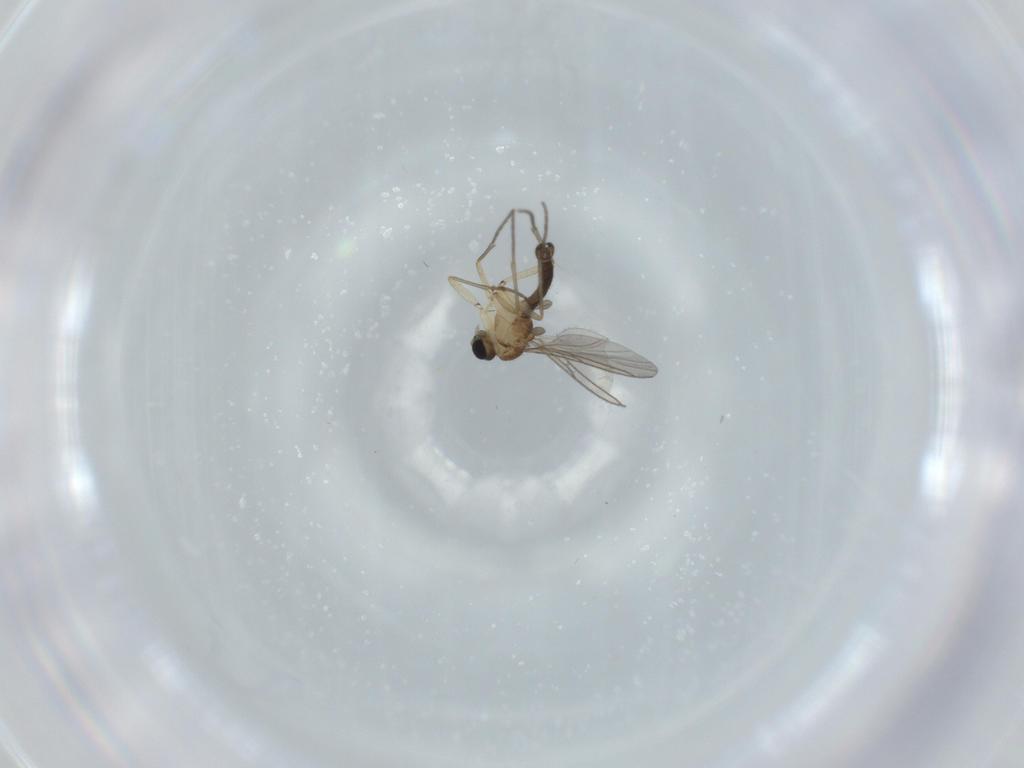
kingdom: Animalia
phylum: Arthropoda
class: Insecta
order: Diptera
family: Sciaridae
